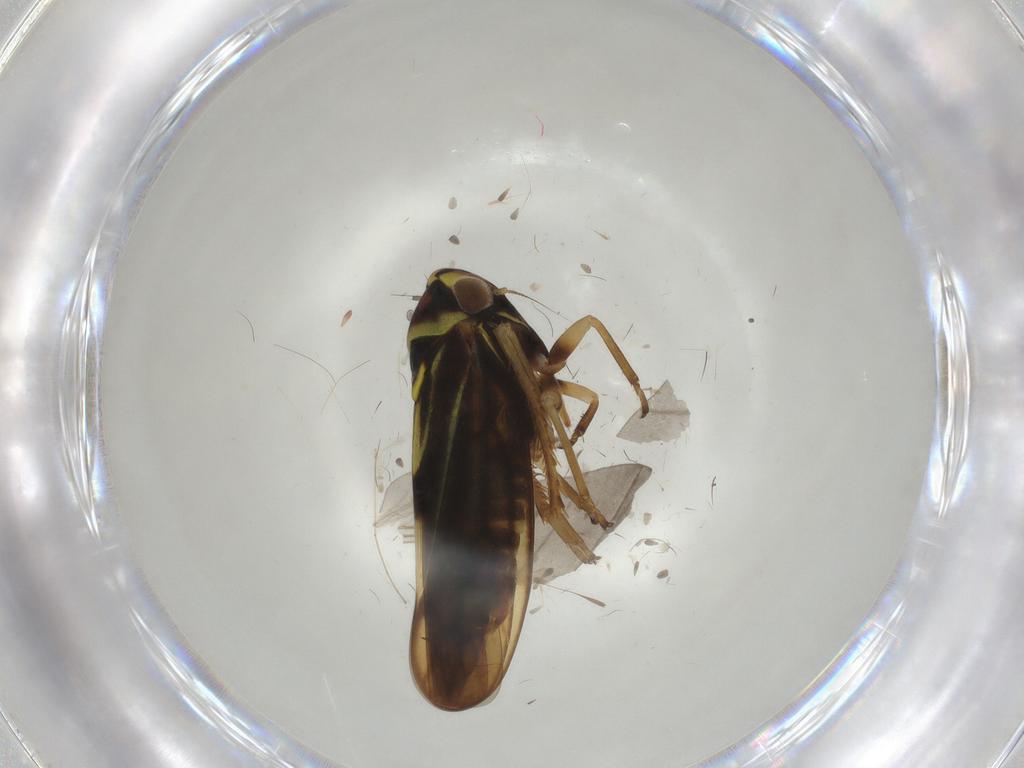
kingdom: Animalia
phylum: Arthropoda
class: Insecta
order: Hemiptera
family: Cicadellidae
